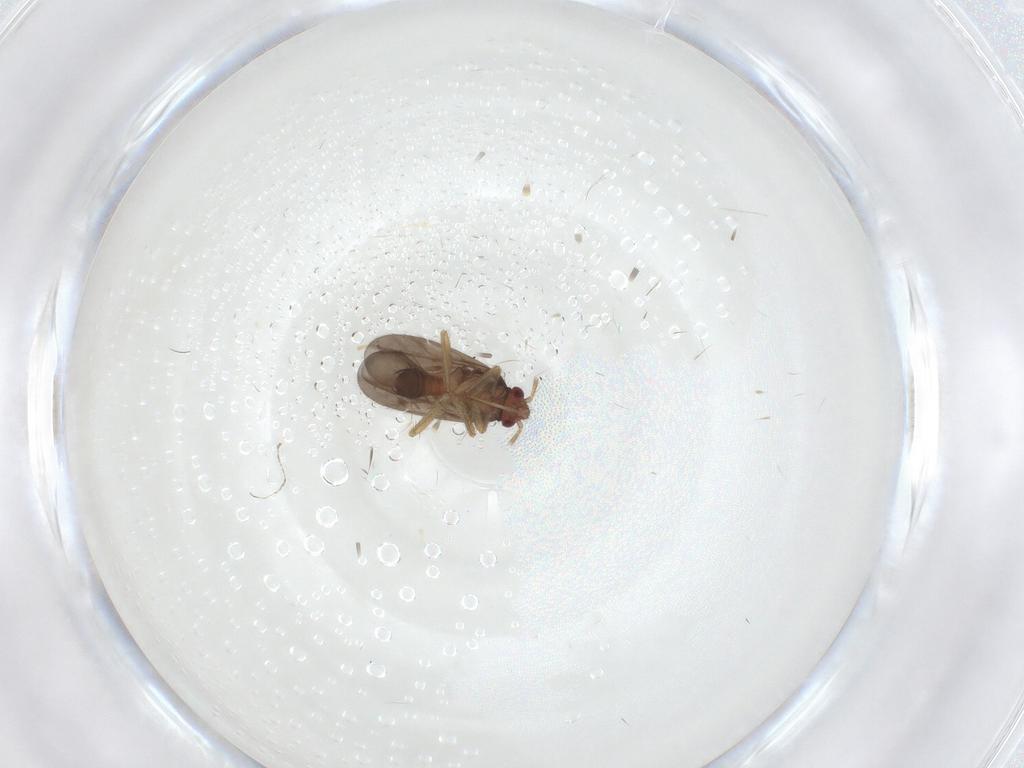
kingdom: Animalia
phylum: Arthropoda
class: Insecta
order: Hemiptera
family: Ceratocombidae
